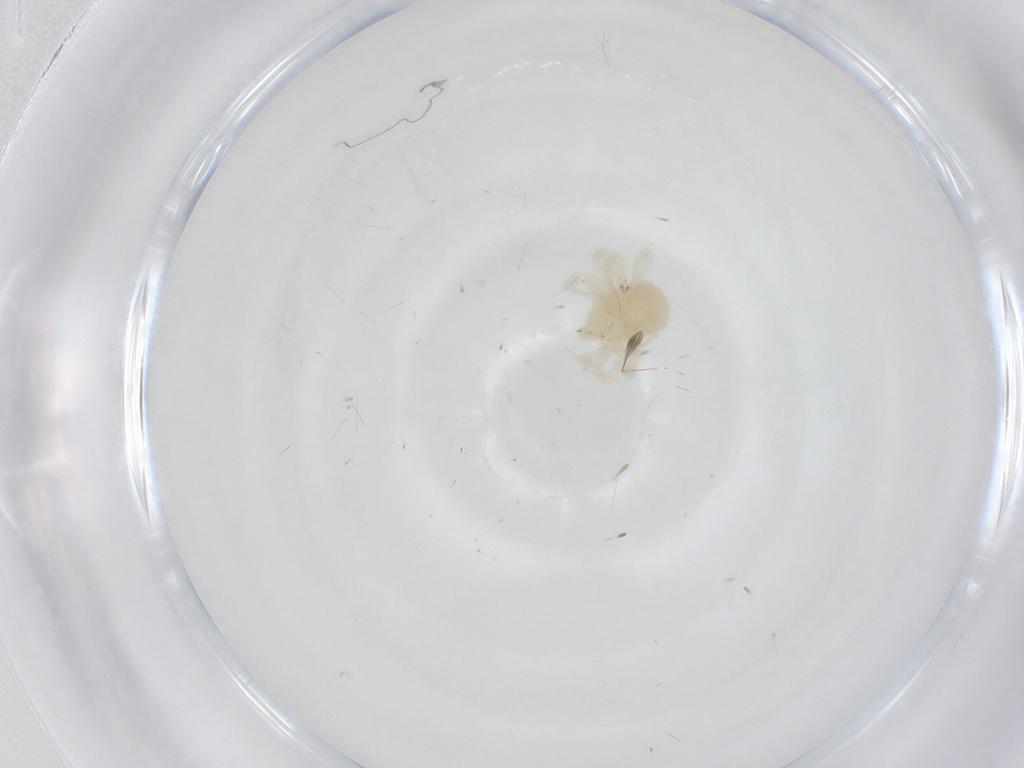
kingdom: Animalia
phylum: Arthropoda
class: Arachnida
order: Trombidiformes
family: Anystidae
